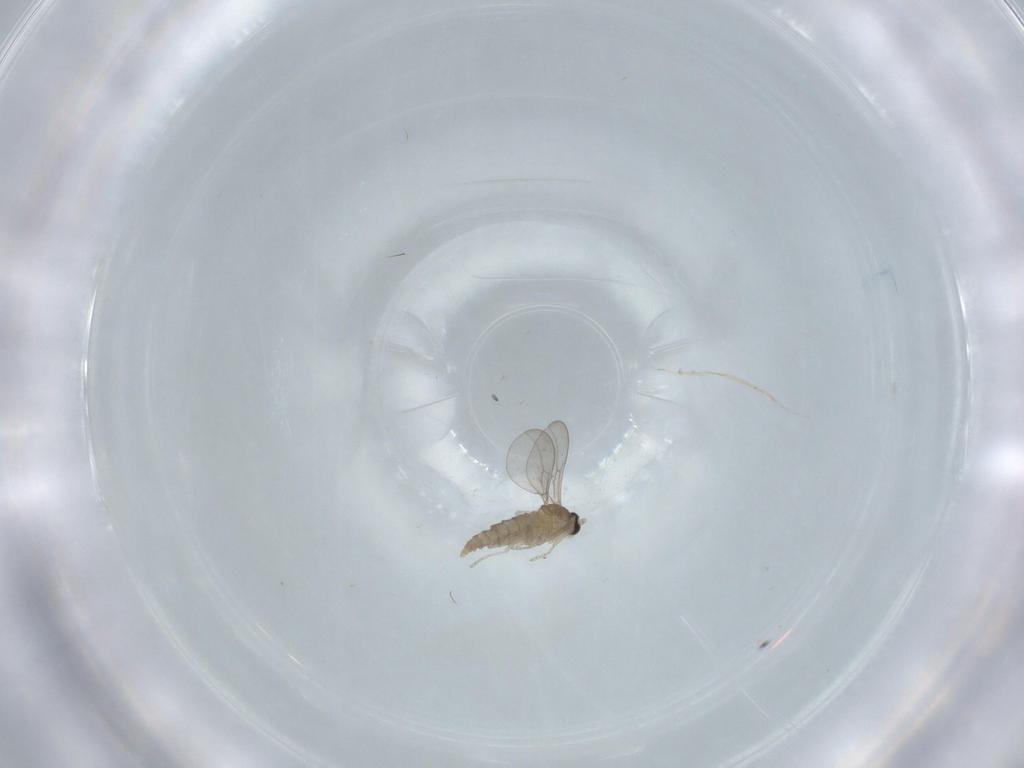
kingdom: Animalia
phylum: Arthropoda
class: Insecta
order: Diptera
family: Cecidomyiidae
